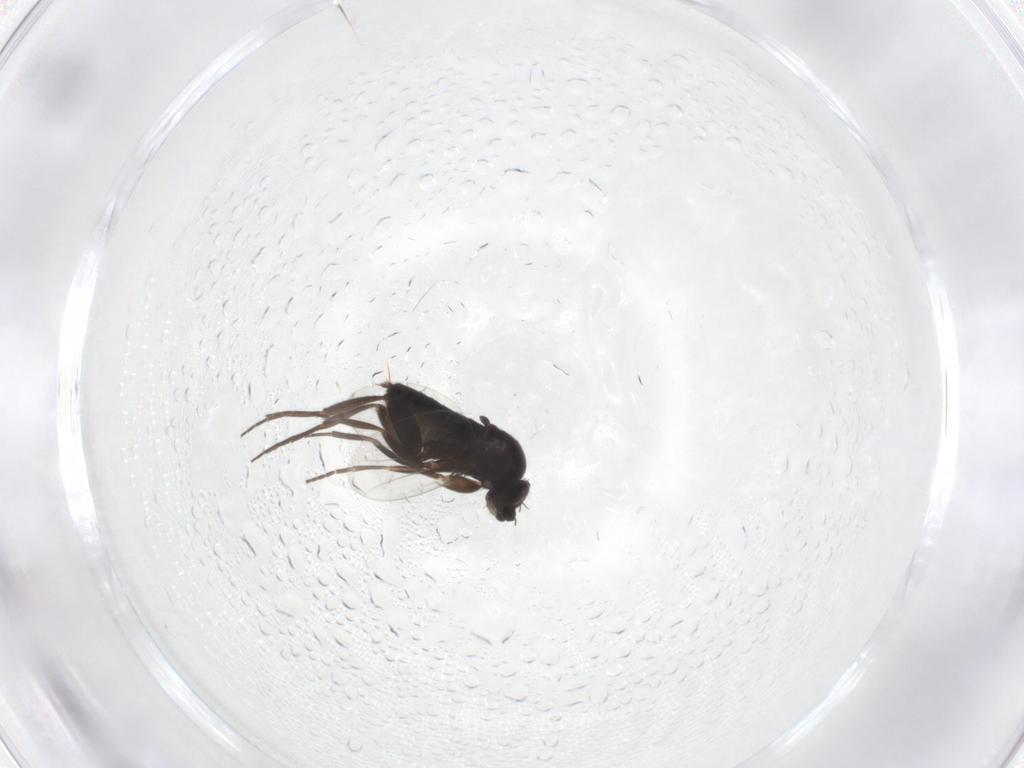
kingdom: Animalia
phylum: Arthropoda
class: Insecta
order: Diptera
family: Phoridae
